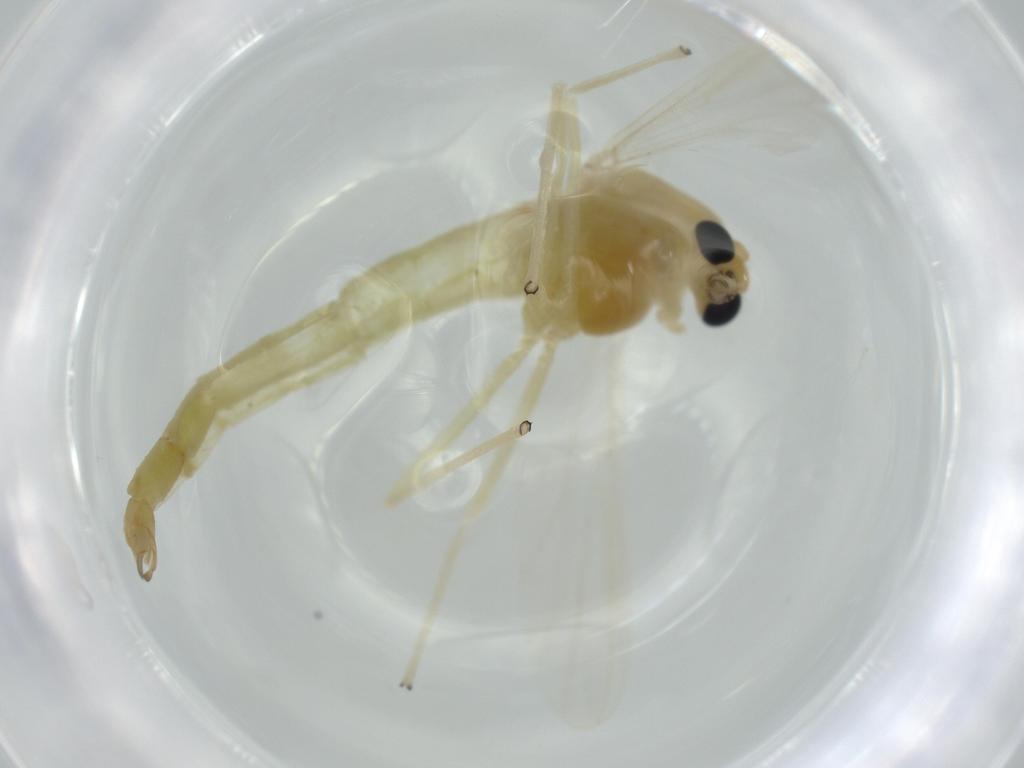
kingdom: Animalia
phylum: Arthropoda
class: Insecta
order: Diptera
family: Chironomidae
